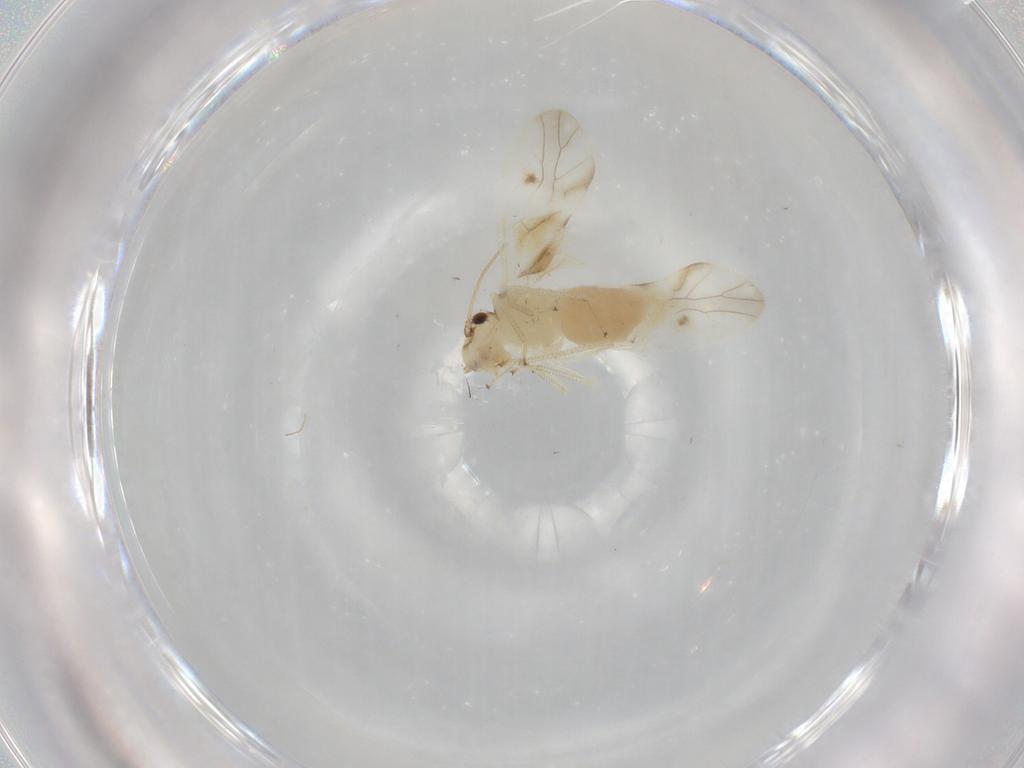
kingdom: Animalia
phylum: Arthropoda
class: Insecta
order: Psocodea
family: Caeciliusidae
